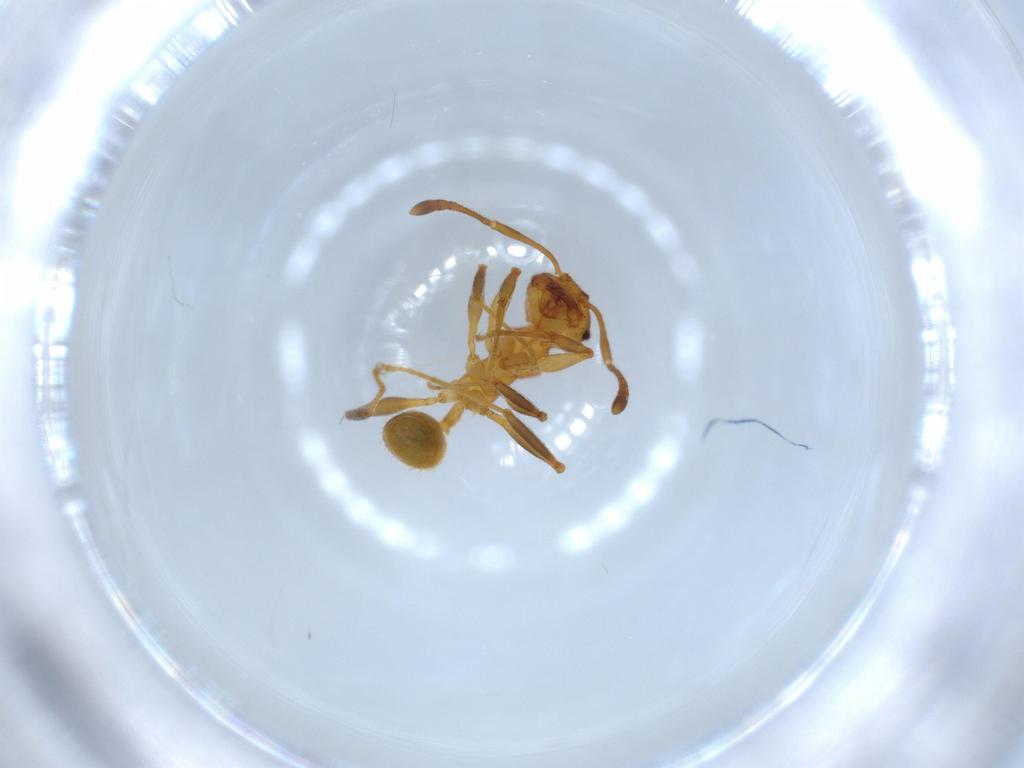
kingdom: Animalia
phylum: Arthropoda
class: Insecta
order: Hymenoptera
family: Formicidae
